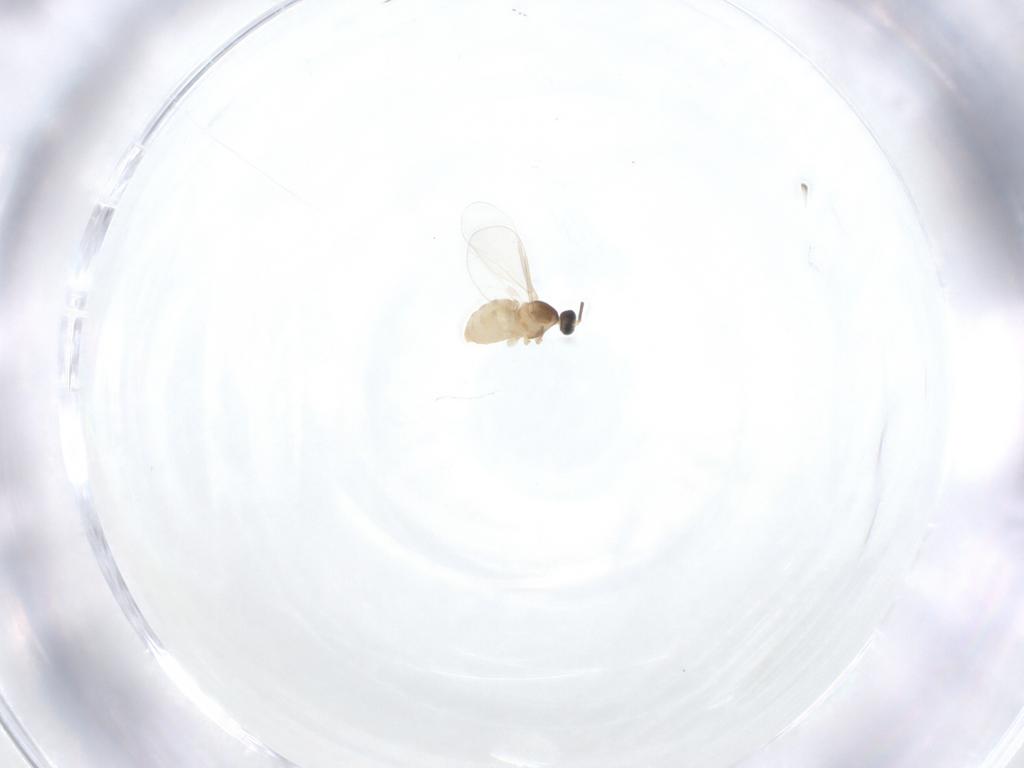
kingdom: Animalia
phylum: Arthropoda
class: Insecta
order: Diptera
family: Cecidomyiidae
